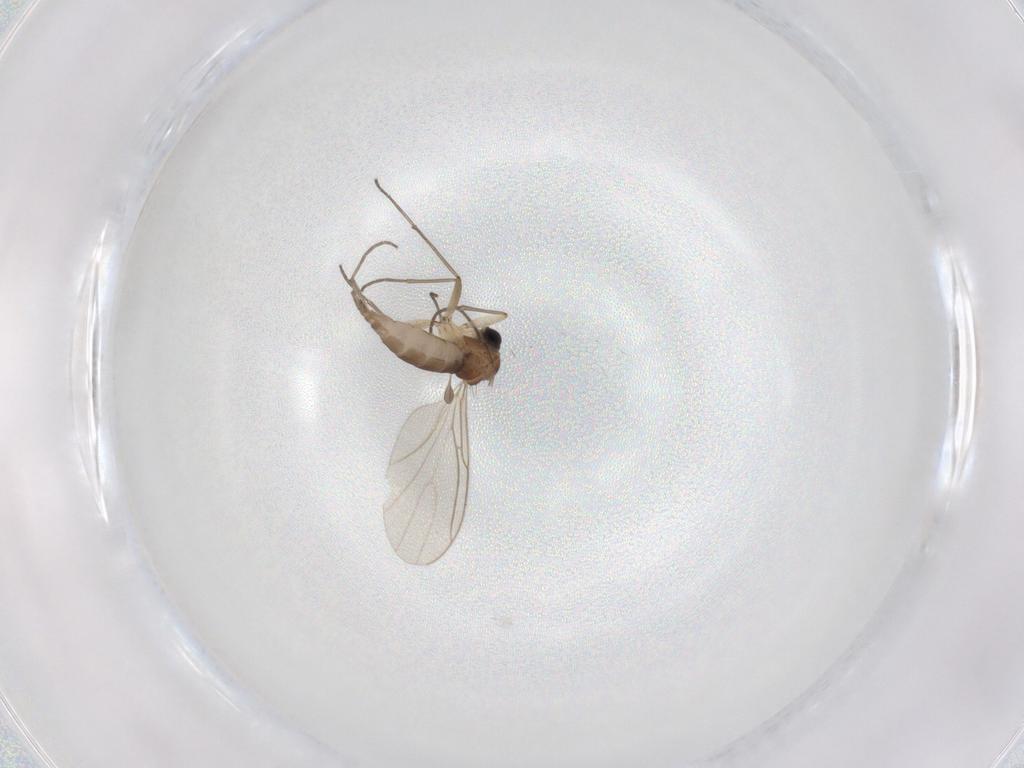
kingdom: Animalia
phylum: Arthropoda
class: Insecta
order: Diptera
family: Sciaridae
